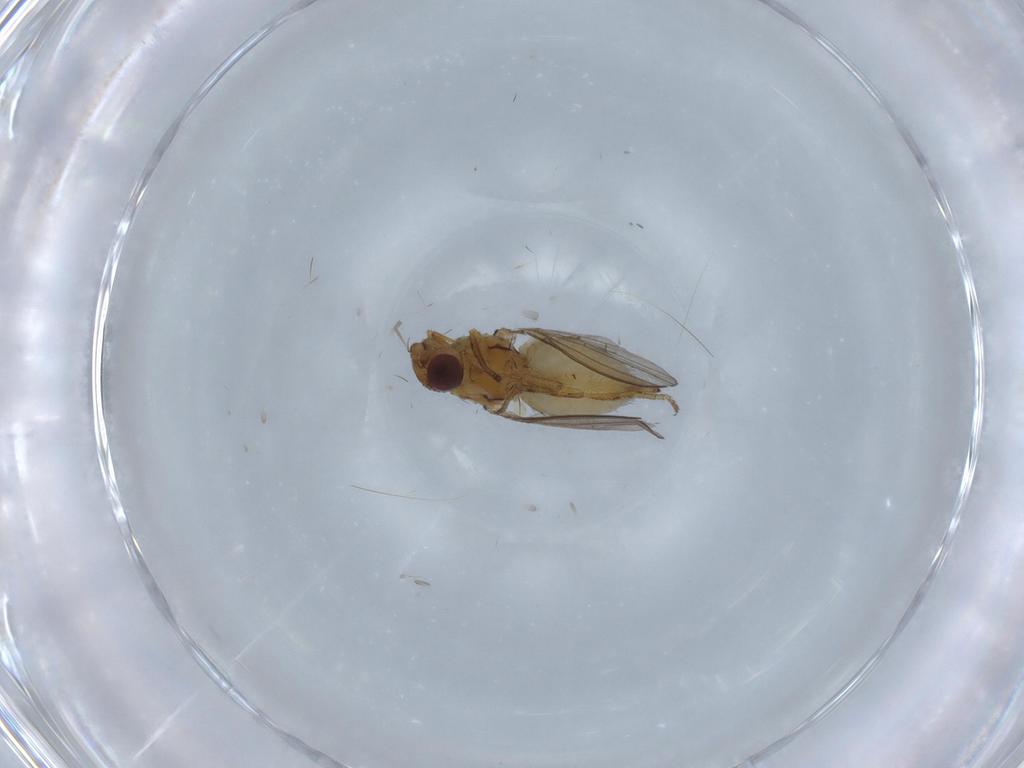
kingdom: Animalia
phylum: Arthropoda
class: Insecta
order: Diptera
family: Milichiidae
